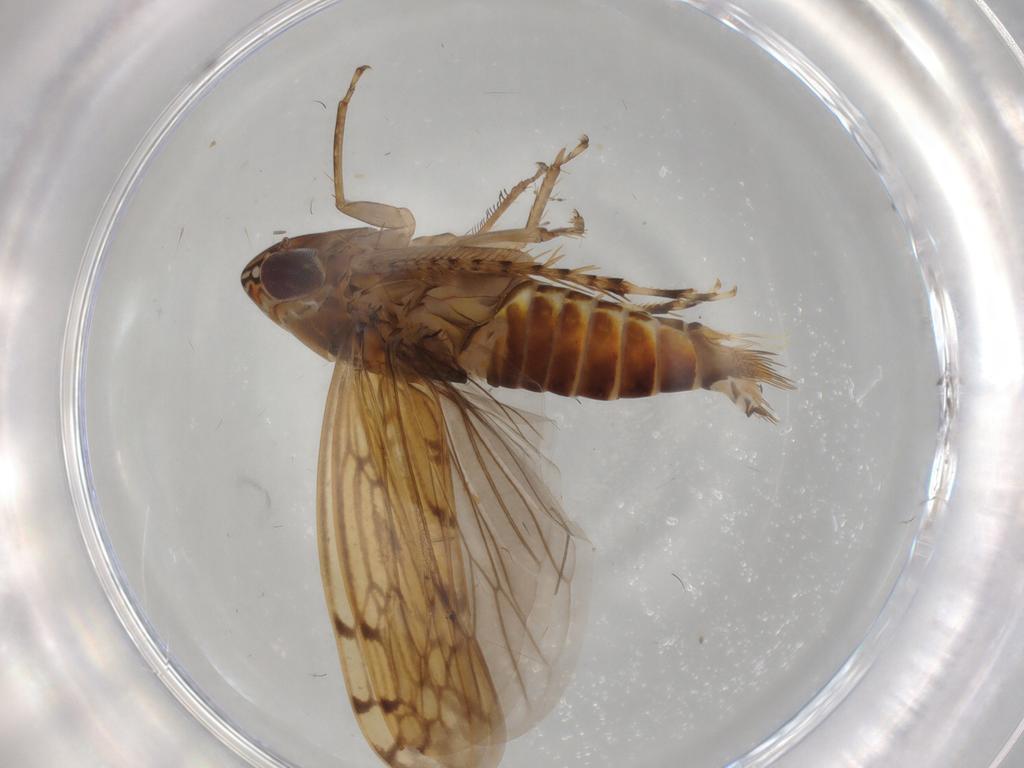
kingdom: Animalia
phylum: Arthropoda
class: Insecta
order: Hemiptera
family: Cicadellidae
